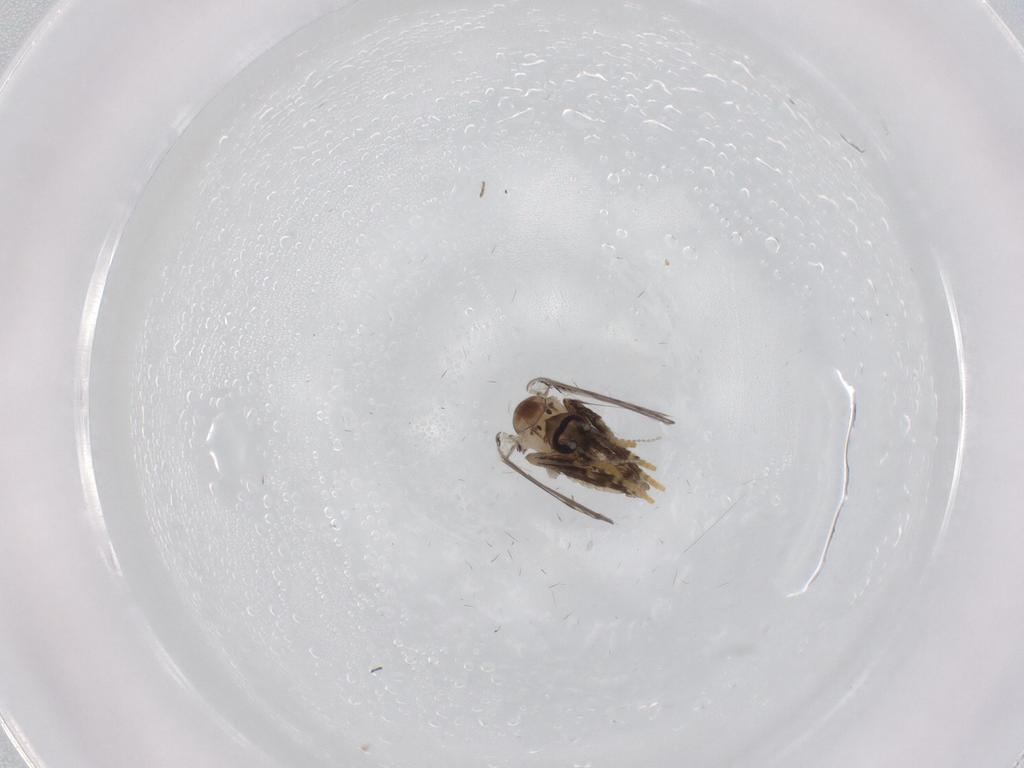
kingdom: Animalia
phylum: Arthropoda
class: Insecta
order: Diptera
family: Psychodidae
